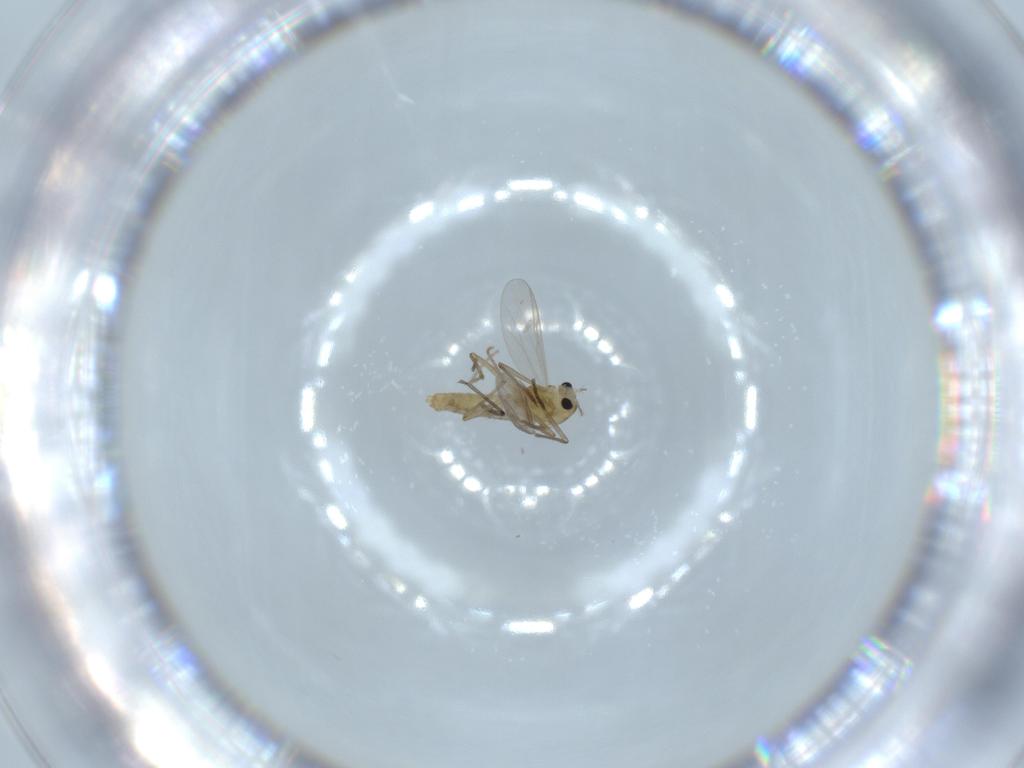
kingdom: Animalia
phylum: Arthropoda
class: Insecta
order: Diptera
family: Chironomidae
